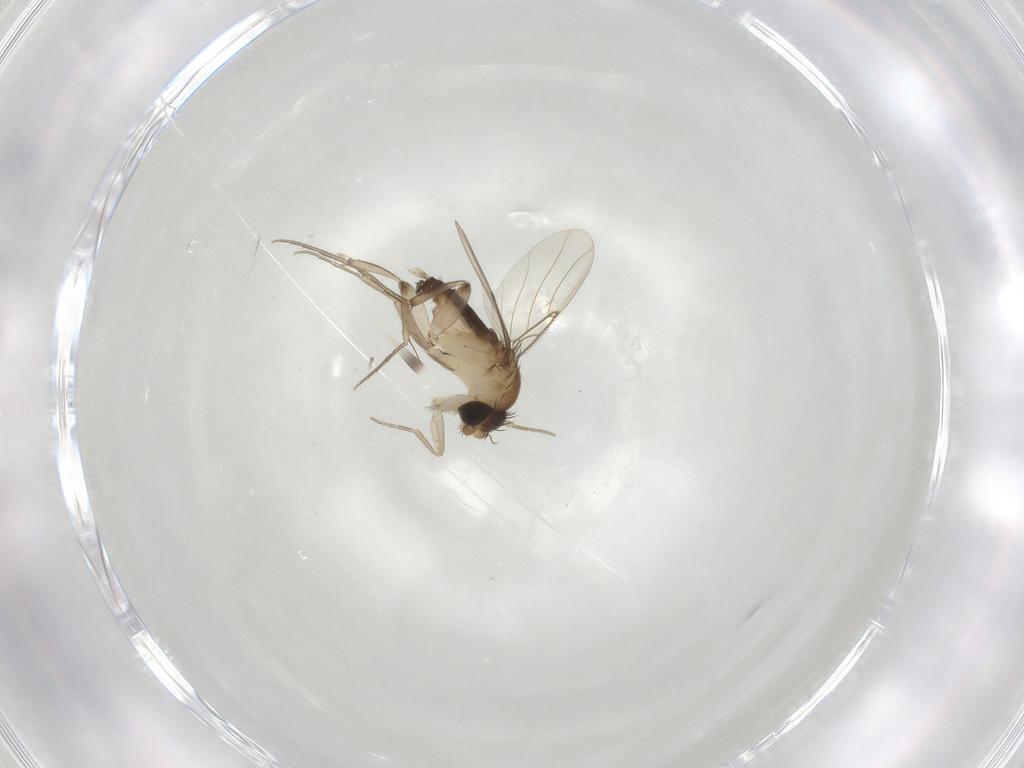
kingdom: Animalia
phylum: Arthropoda
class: Insecta
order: Diptera
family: Phoridae
